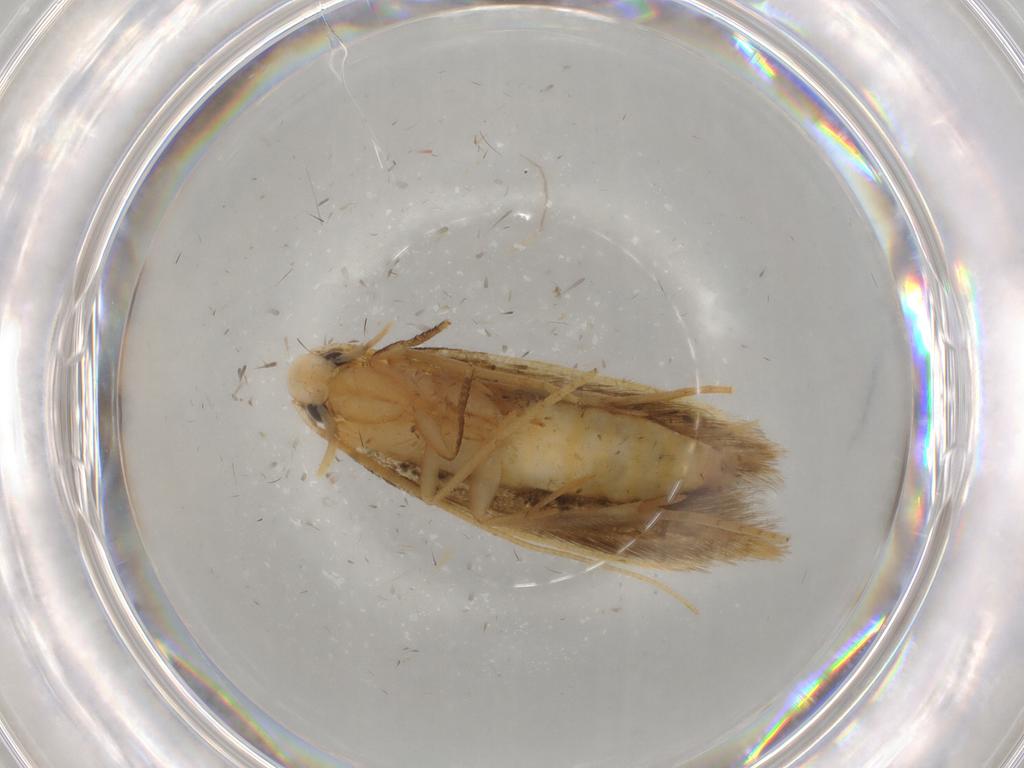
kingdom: Animalia
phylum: Arthropoda
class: Insecta
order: Lepidoptera
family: Tineidae
